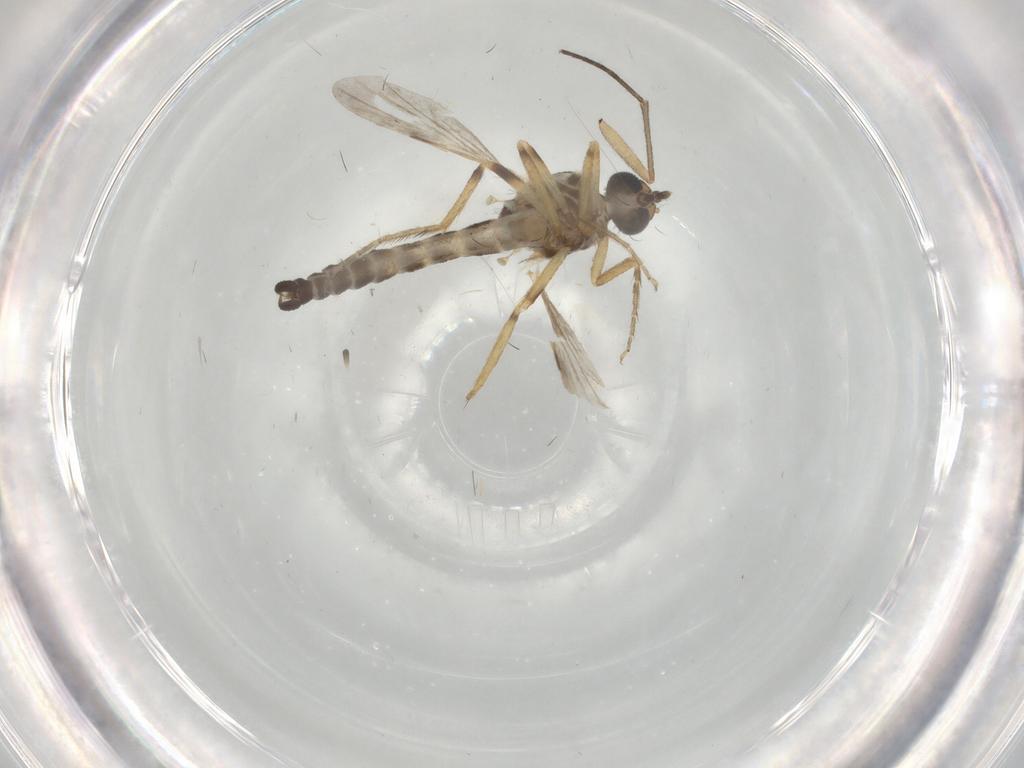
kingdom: Animalia
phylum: Arthropoda
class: Insecta
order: Diptera
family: Ceratopogonidae
